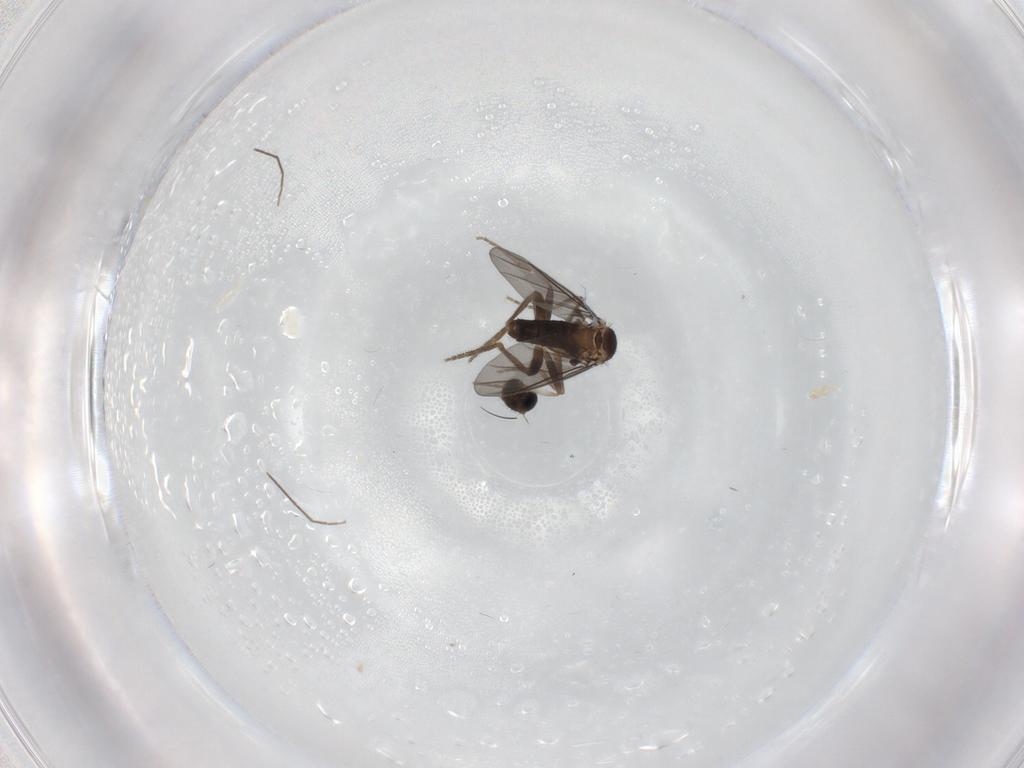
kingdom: Animalia
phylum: Arthropoda
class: Insecta
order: Diptera
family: Phoridae
